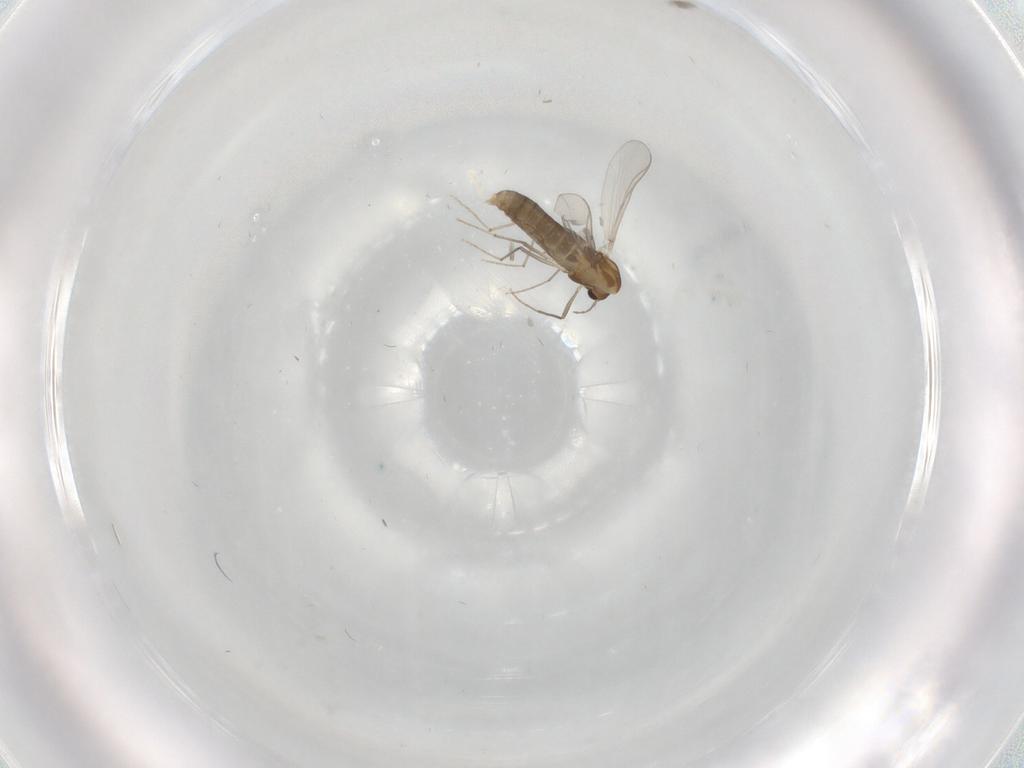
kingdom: Animalia
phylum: Arthropoda
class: Insecta
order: Diptera
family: Chironomidae
